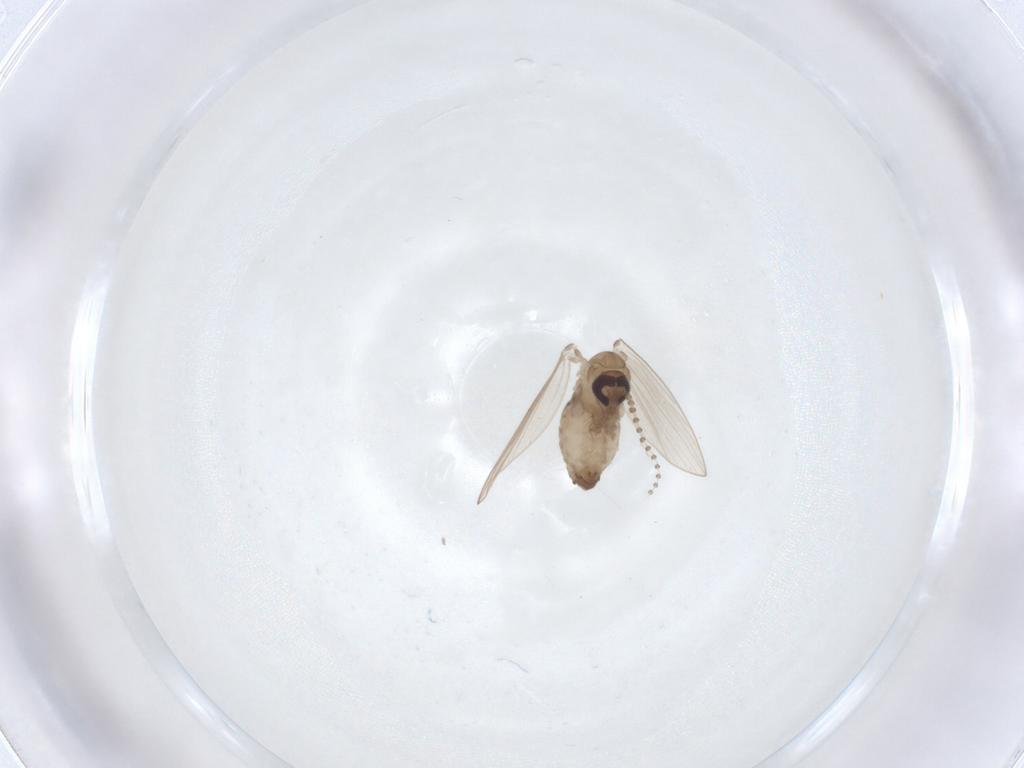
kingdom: Animalia
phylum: Arthropoda
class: Insecta
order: Diptera
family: Psychodidae
